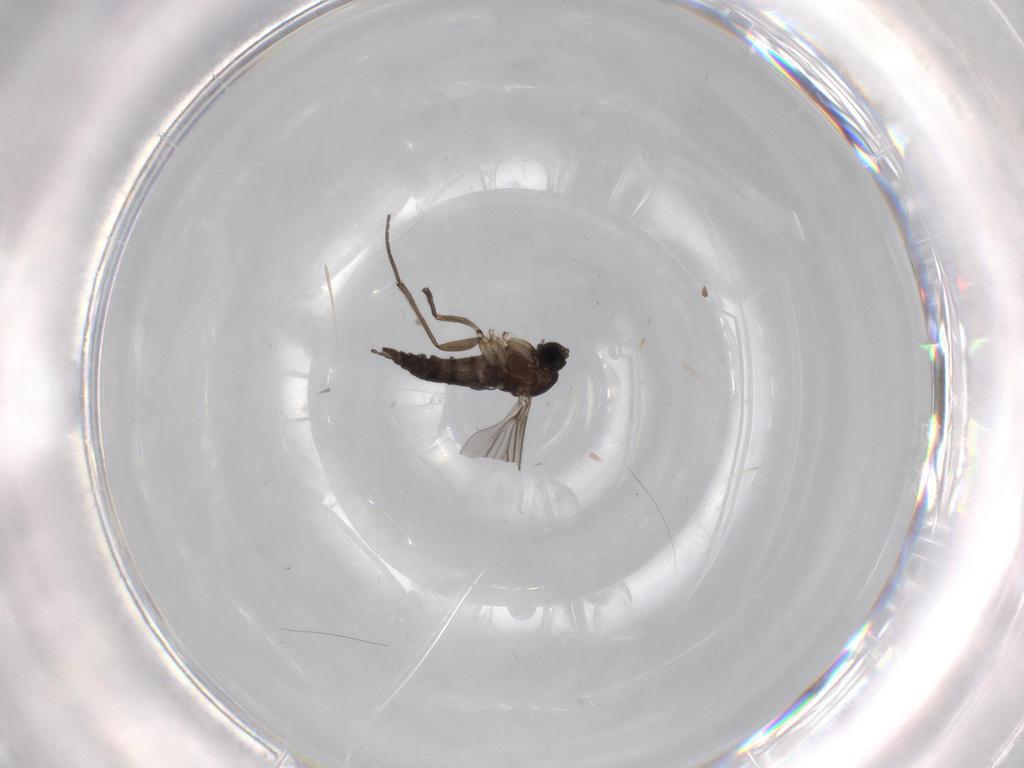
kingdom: Animalia
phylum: Arthropoda
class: Insecta
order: Diptera
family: Sciaridae
